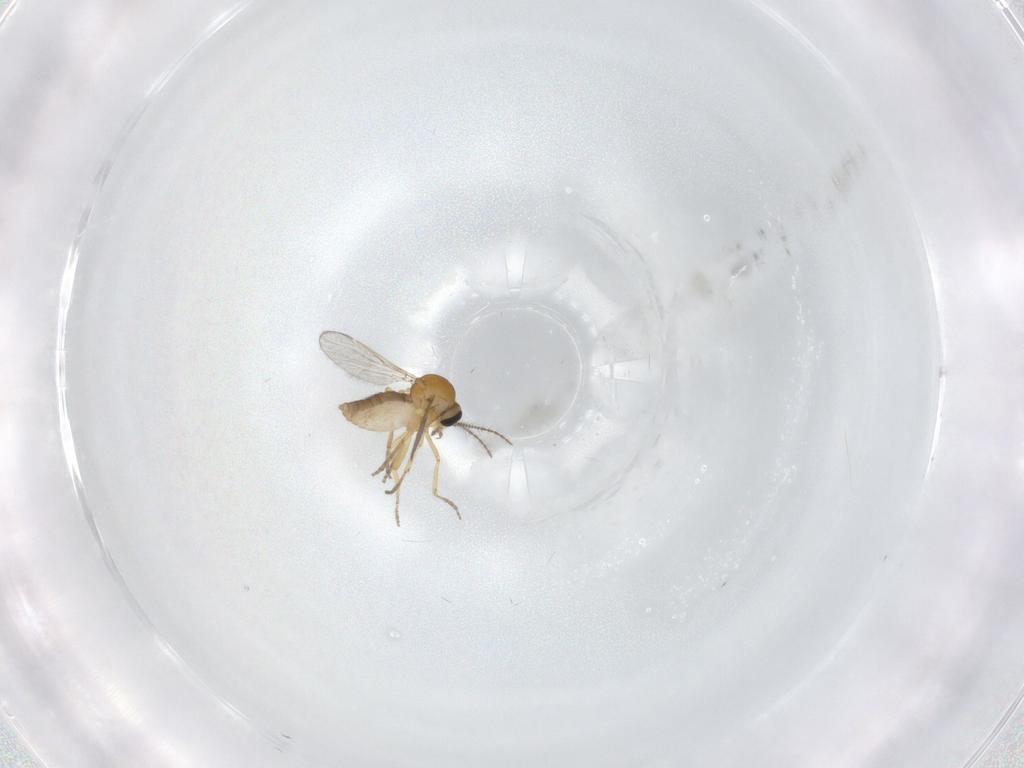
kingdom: Animalia
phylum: Arthropoda
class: Insecta
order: Diptera
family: Ceratopogonidae
